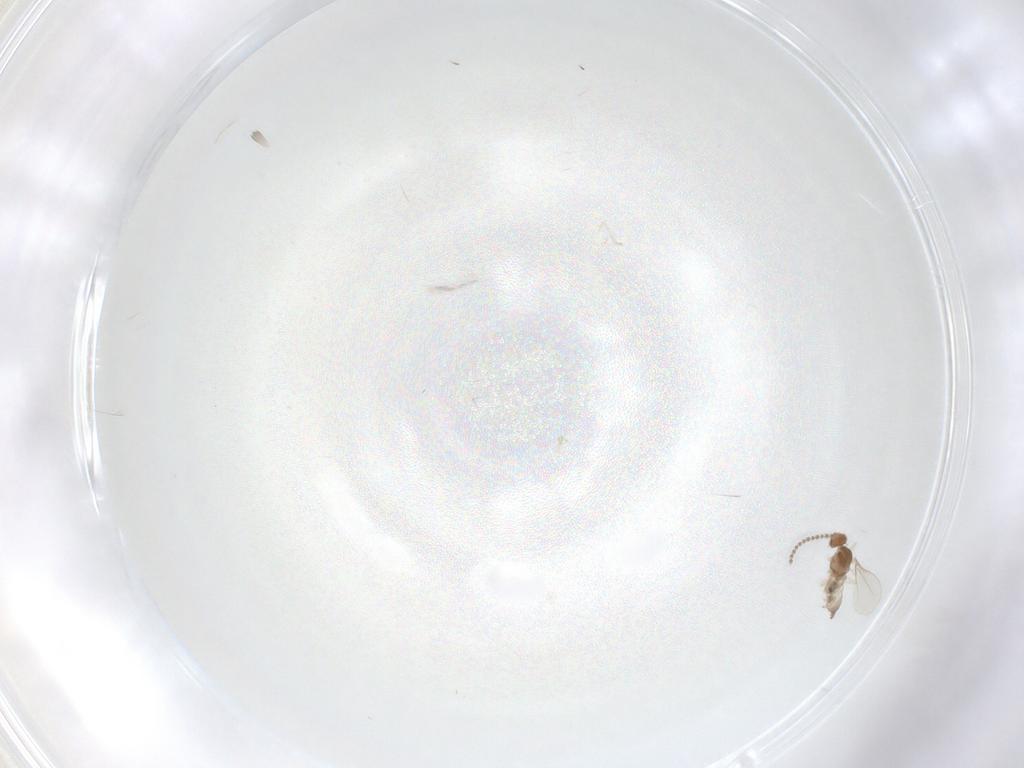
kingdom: Animalia
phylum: Arthropoda
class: Insecta
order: Diptera
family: Cecidomyiidae
